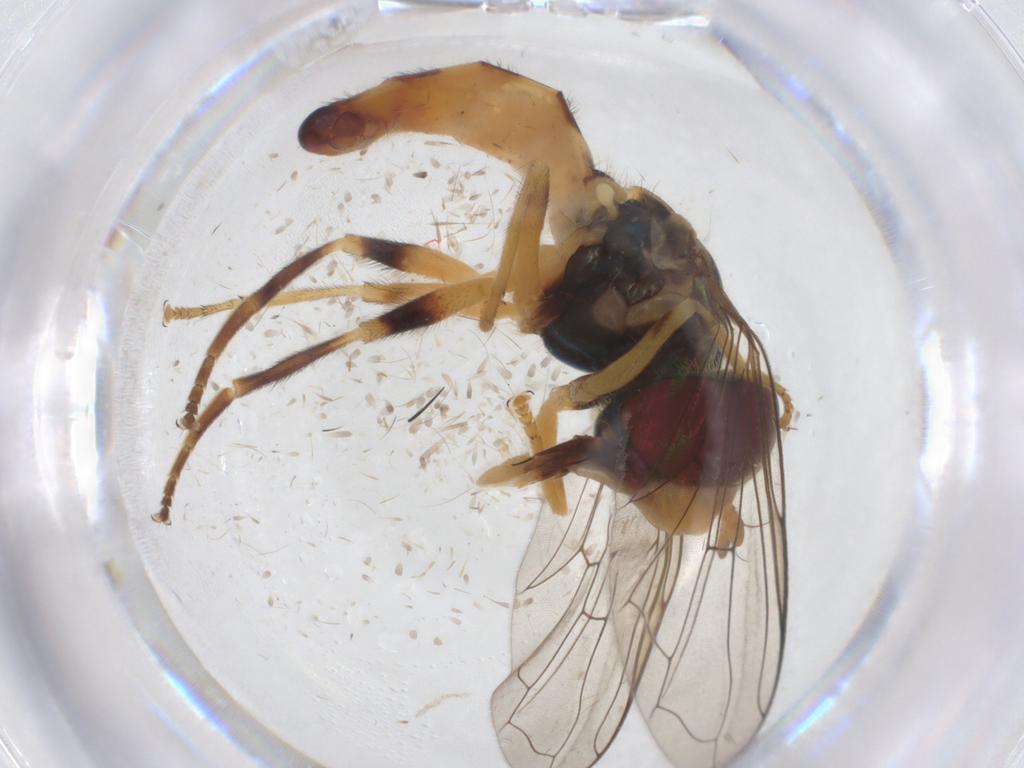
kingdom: Animalia
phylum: Arthropoda
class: Insecta
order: Diptera
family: Syrphidae
